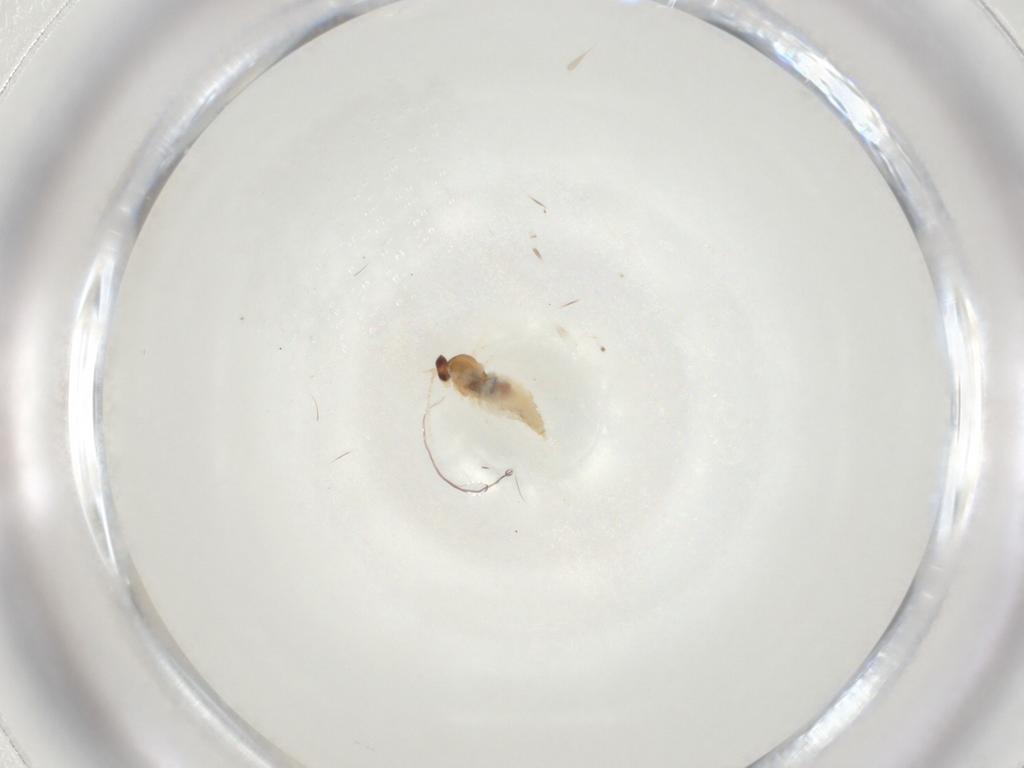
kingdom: Animalia
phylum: Arthropoda
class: Insecta
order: Diptera
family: Cecidomyiidae
